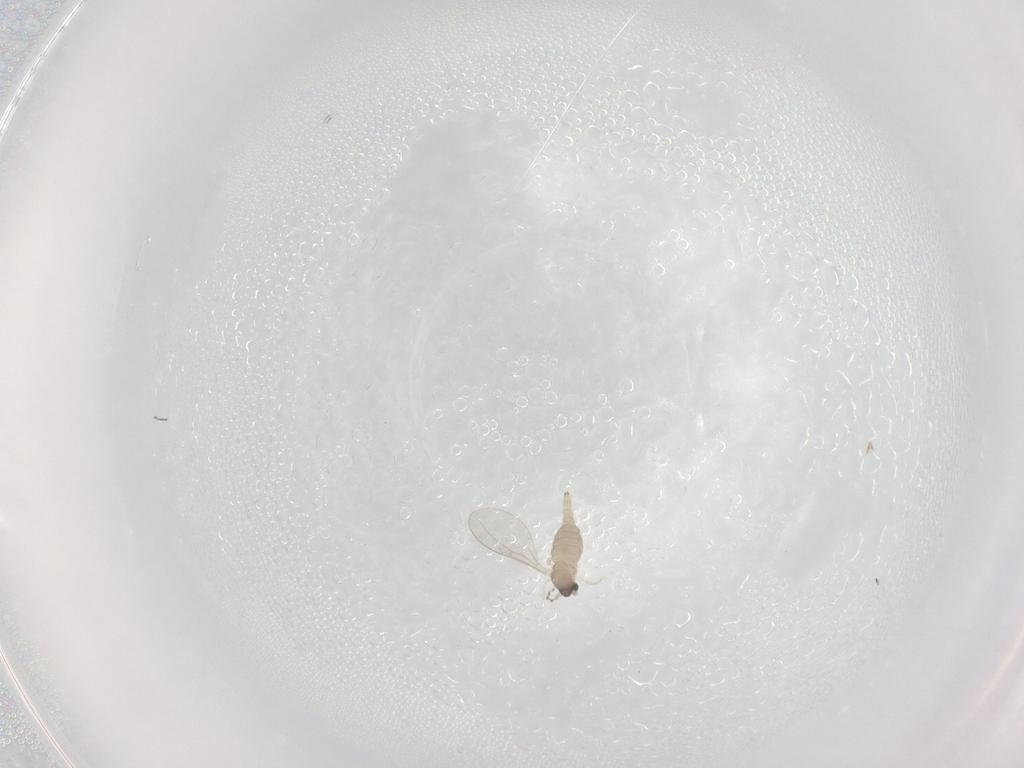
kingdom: Animalia
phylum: Arthropoda
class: Insecta
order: Diptera
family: Cecidomyiidae
